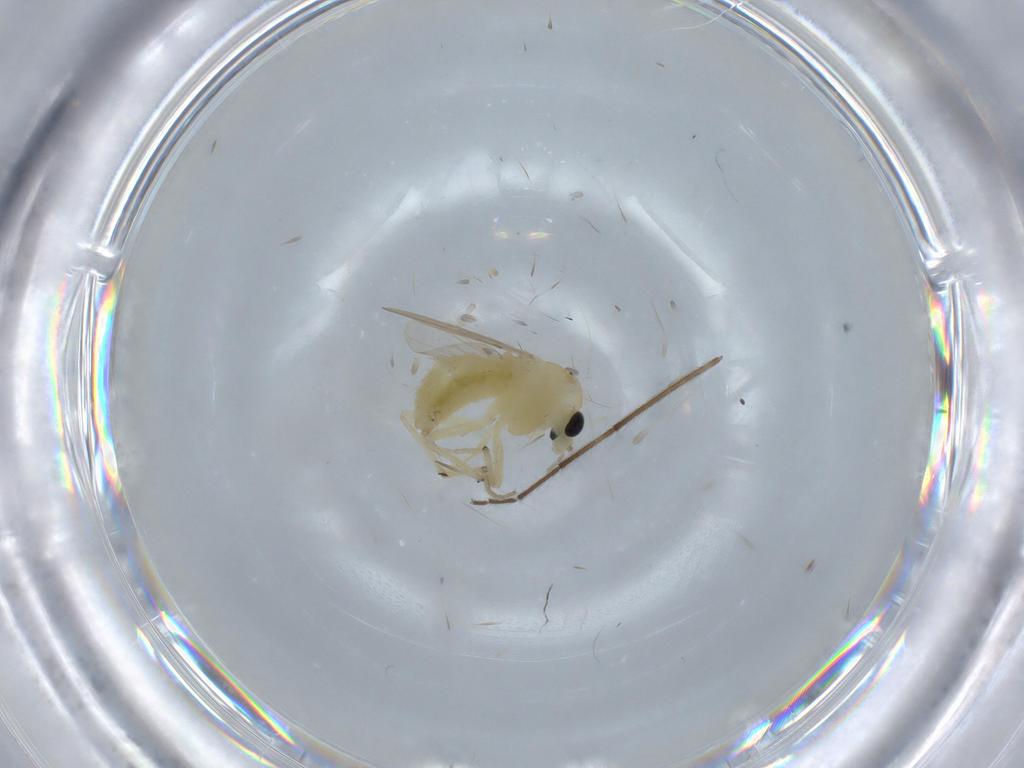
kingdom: Animalia
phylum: Arthropoda
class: Insecta
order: Diptera
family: Chironomidae
